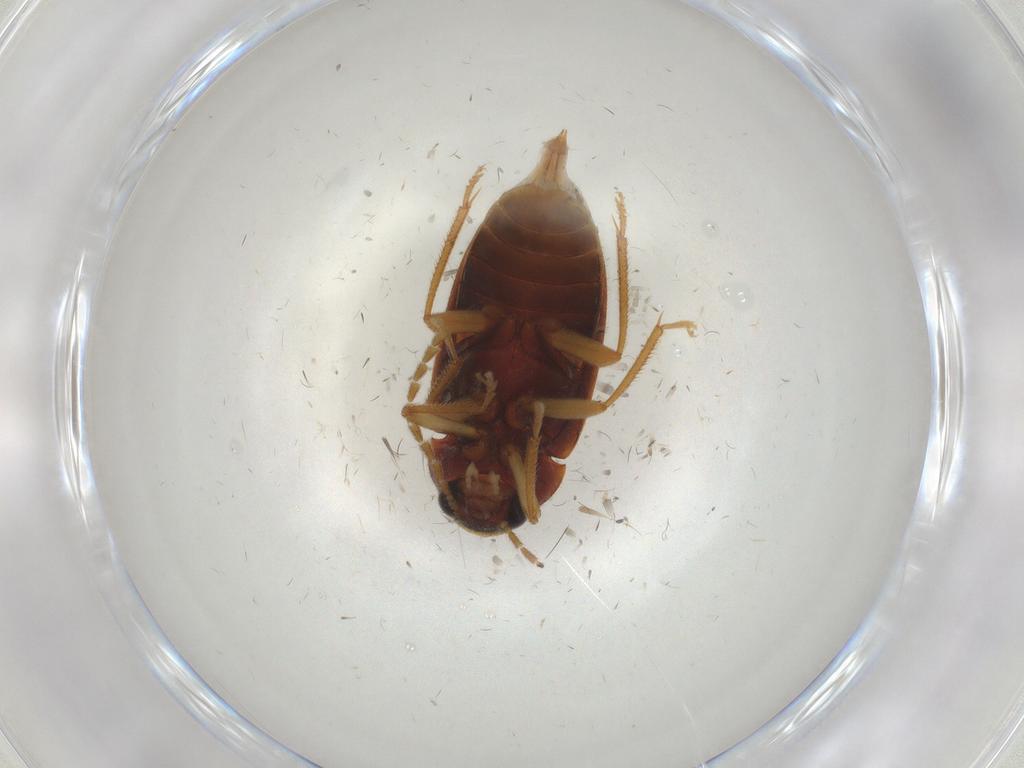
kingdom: Animalia
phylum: Arthropoda
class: Insecta
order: Coleoptera
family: Ptilodactylidae
